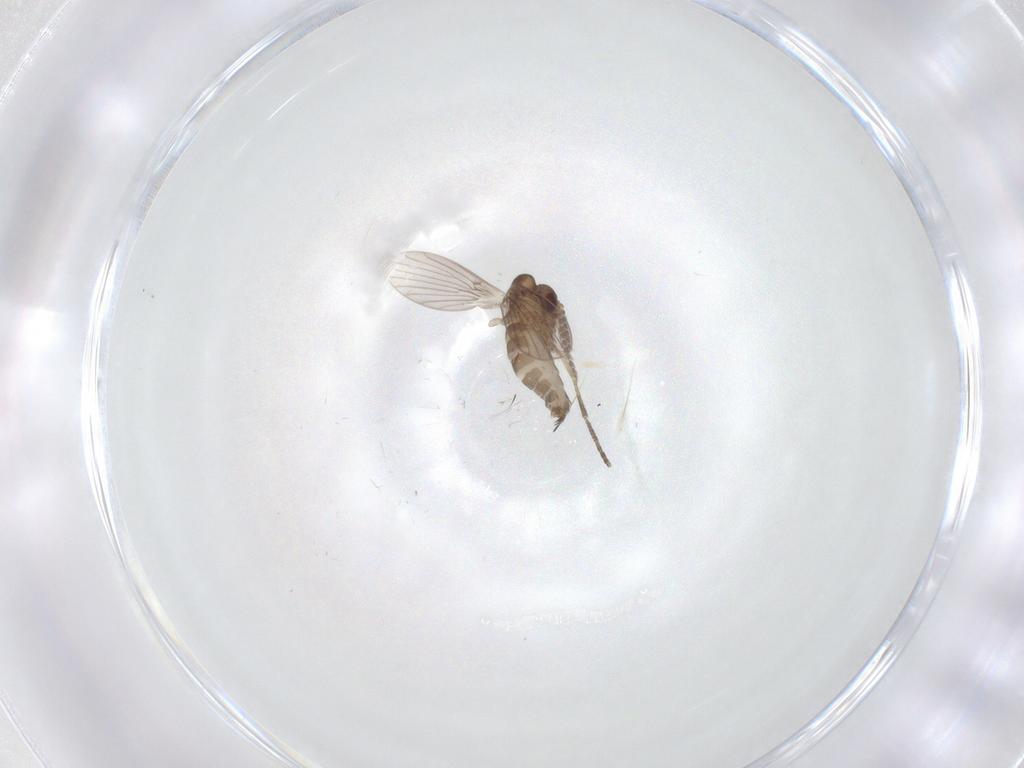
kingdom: Animalia
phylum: Arthropoda
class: Insecta
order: Diptera
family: Psychodidae
